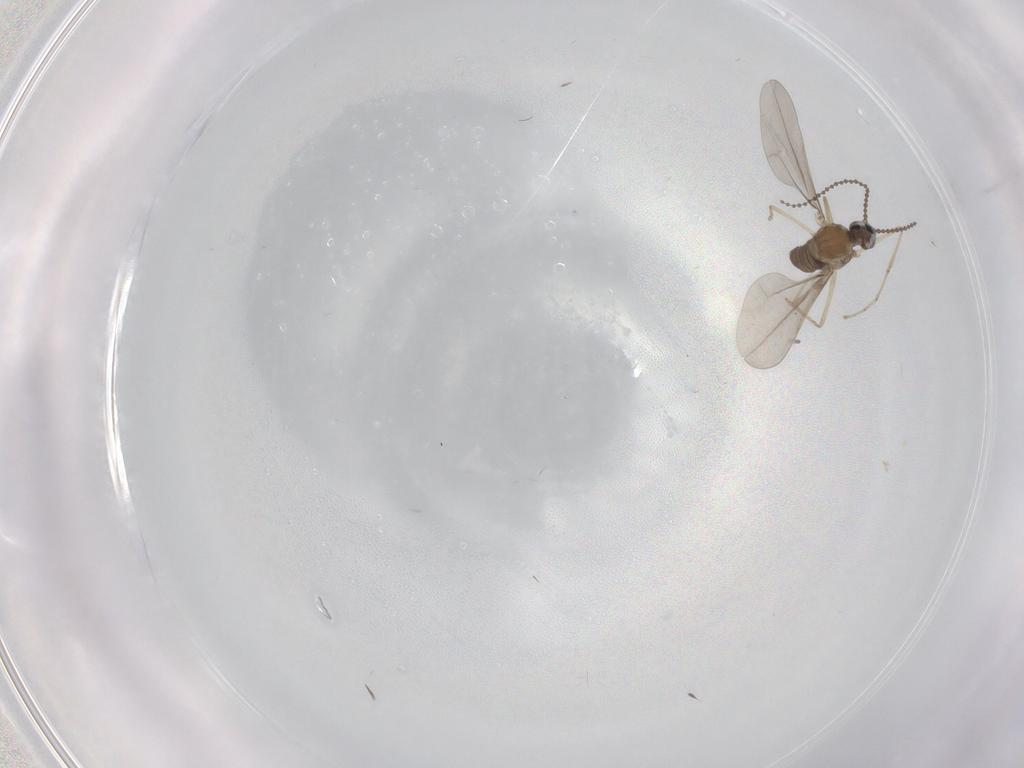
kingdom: Animalia
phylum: Arthropoda
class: Insecta
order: Diptera
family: Cecidomyiidae
